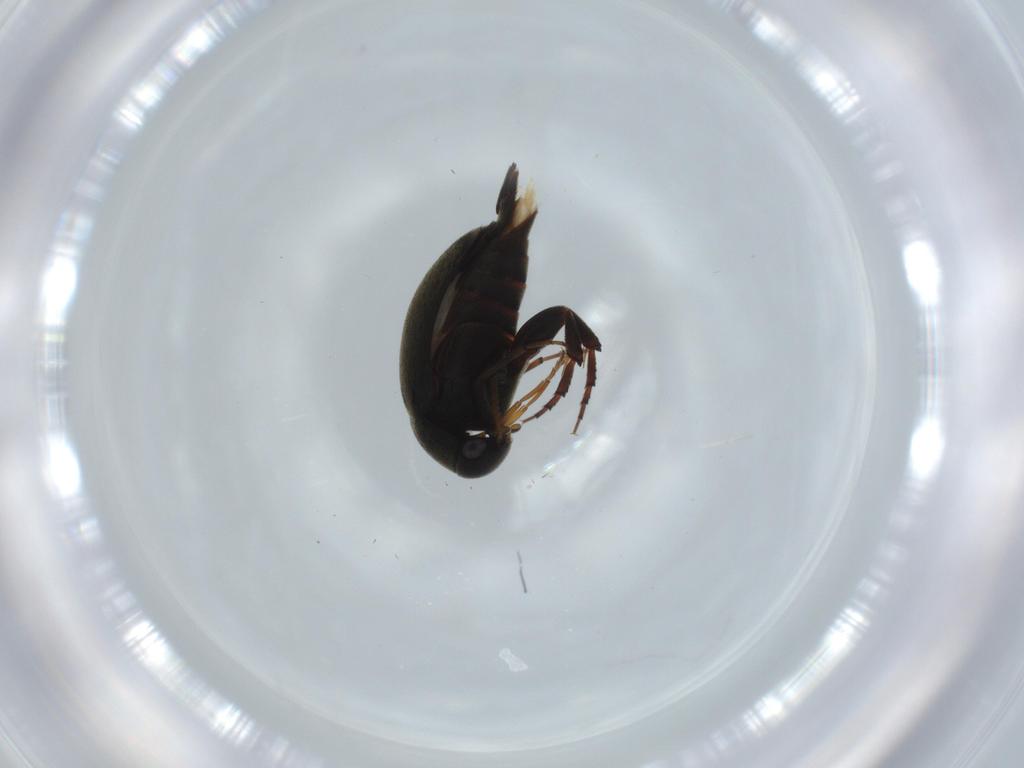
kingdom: Animalia
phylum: Arthropoda
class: Insecta
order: Coleoptera
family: Mordellidae
